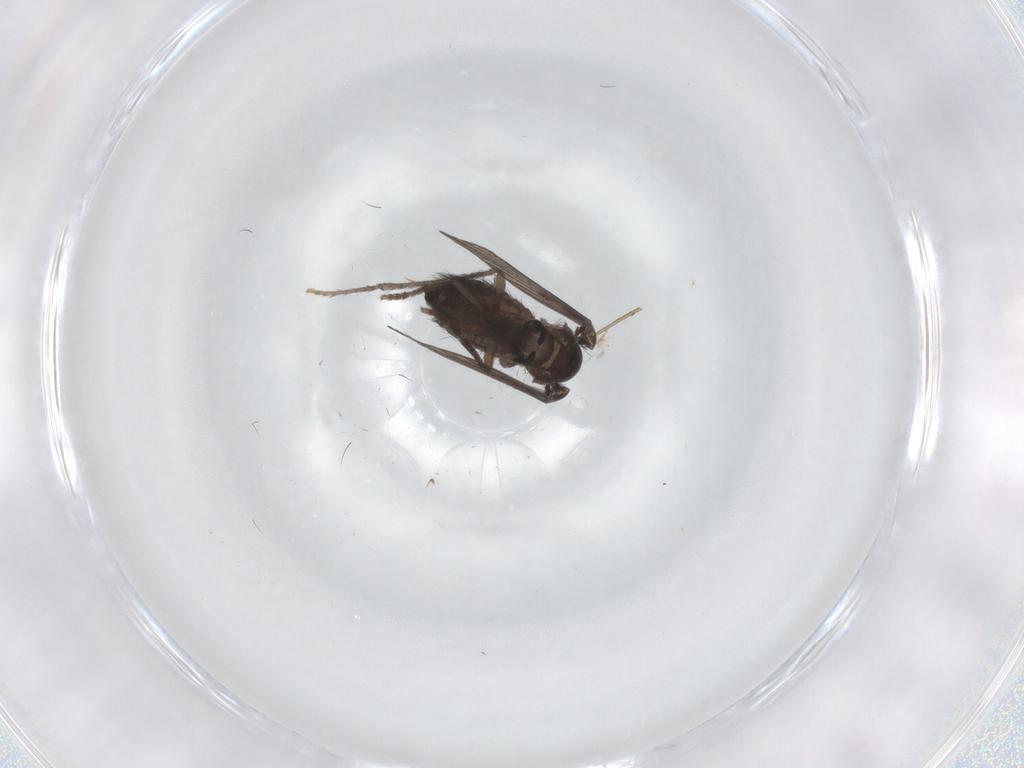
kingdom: Animalia
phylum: Arthropoda
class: Insecta
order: Diptera
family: Psychodidae
